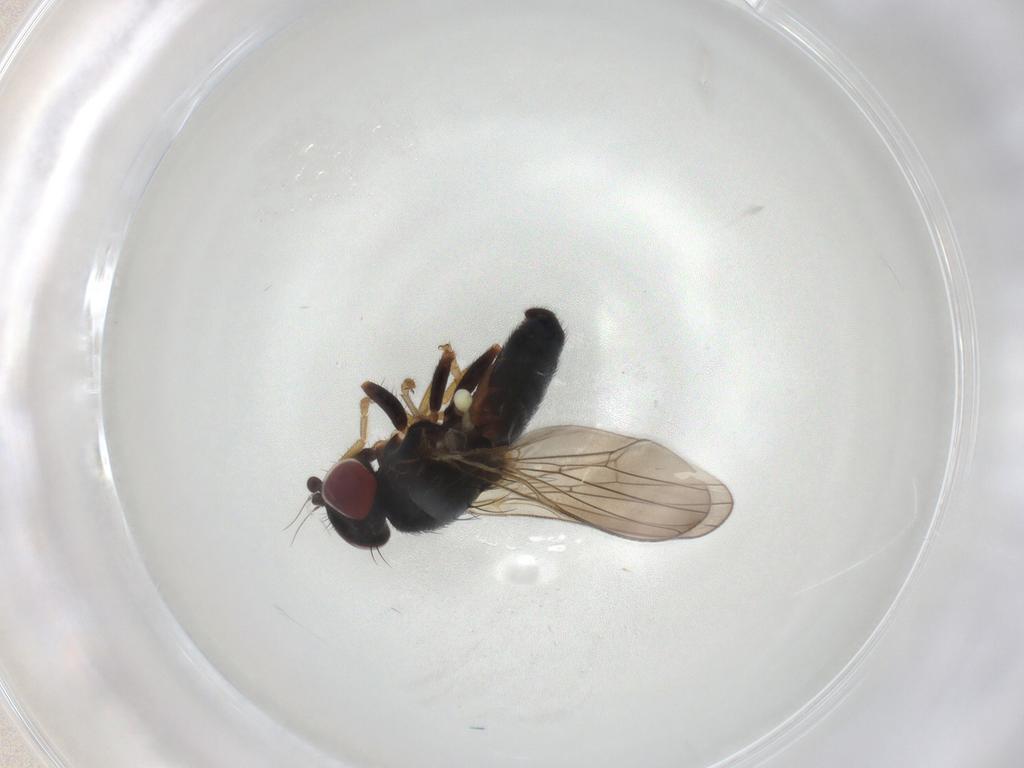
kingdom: Animalia
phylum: Arthropoda
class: Insecta
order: Diptera
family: Chamaemyiidae
